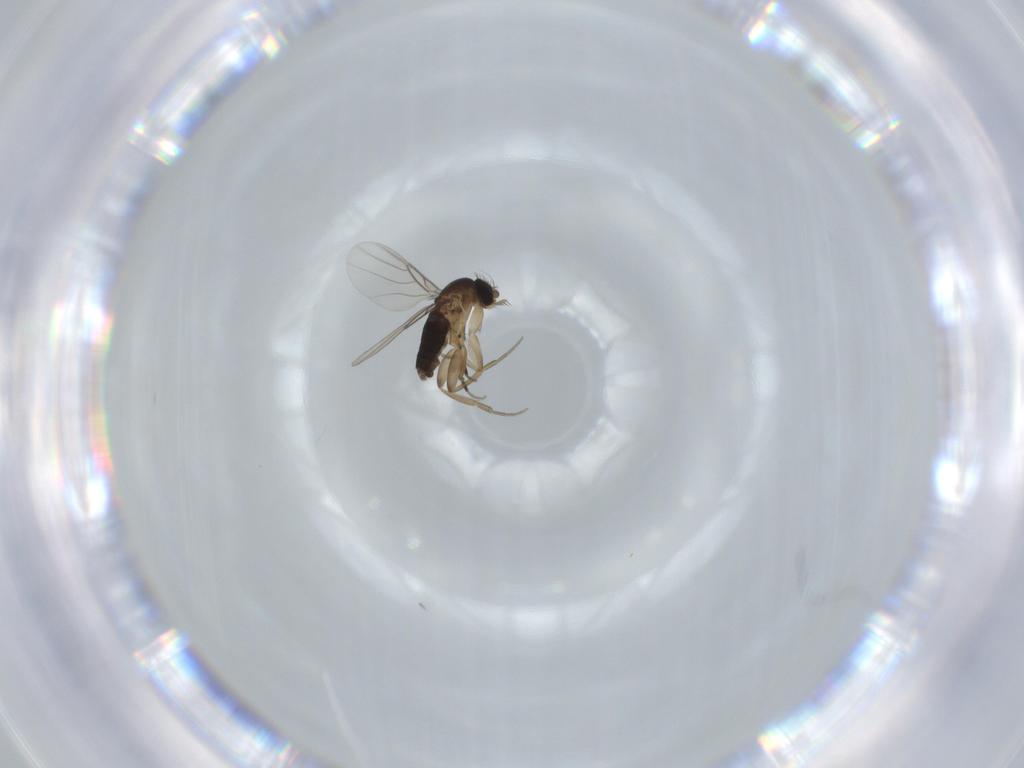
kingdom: Animalia
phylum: Arthropoda
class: Insecta
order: Diptera
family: Phoridae
